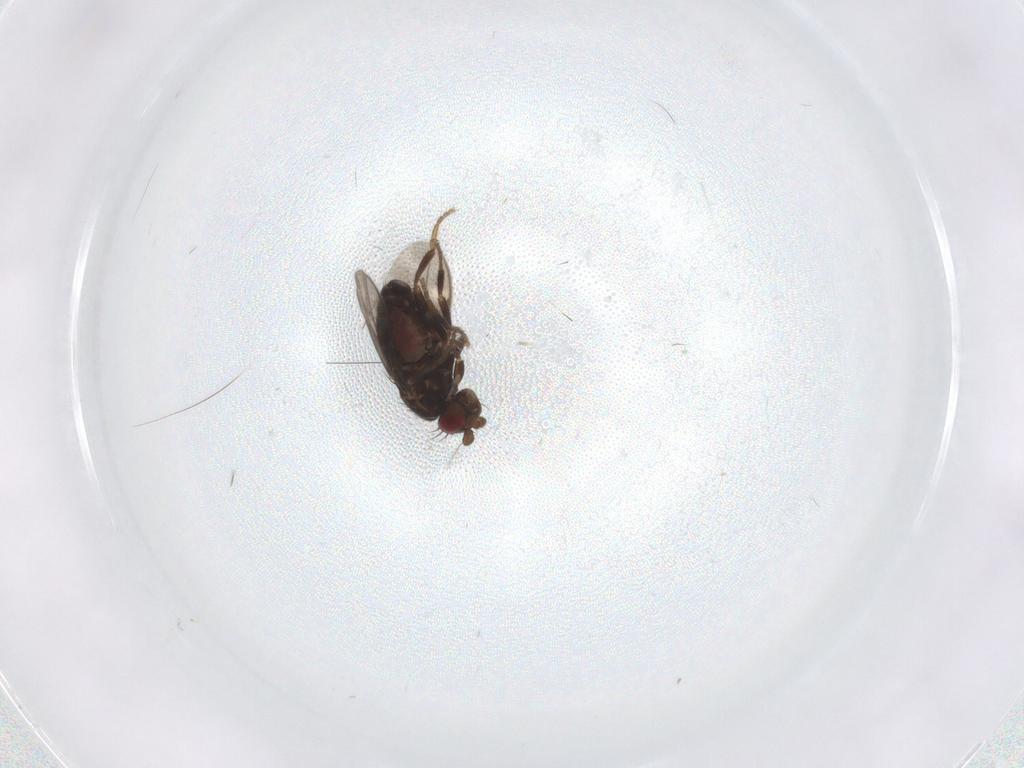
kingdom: Animalia
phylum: Arthropoda
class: Insecta
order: Diptera
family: Sphaeroceridae
